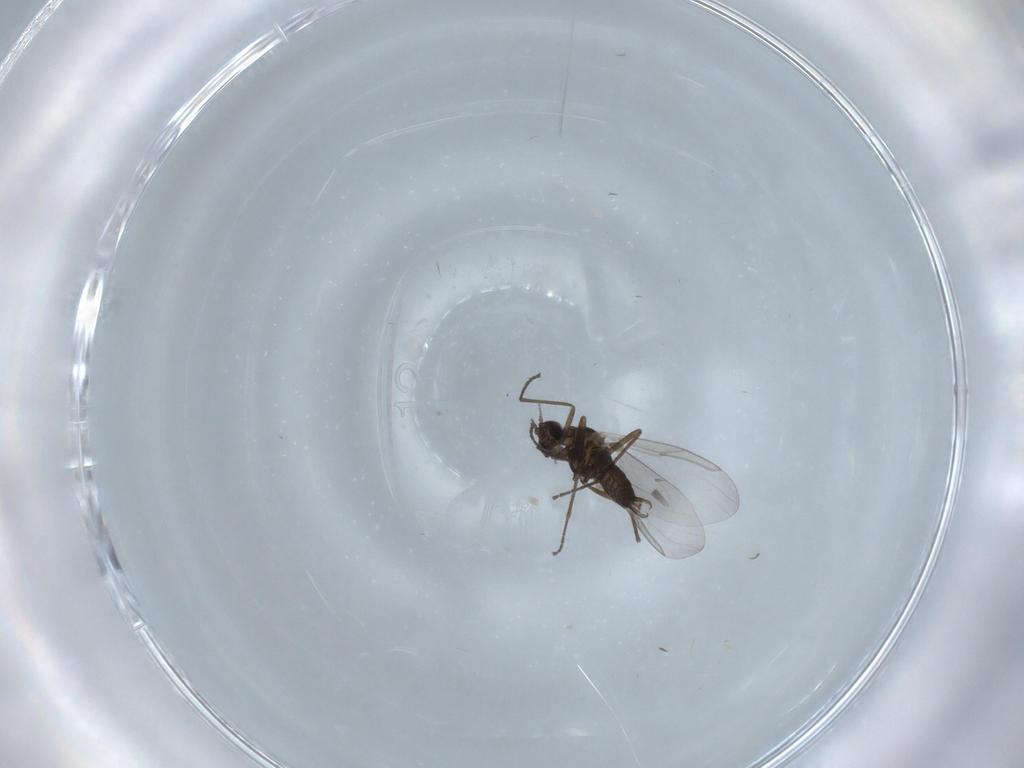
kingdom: Animalia
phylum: Arthropoda
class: Insecta
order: Diptera
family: Cecidomyiidae
